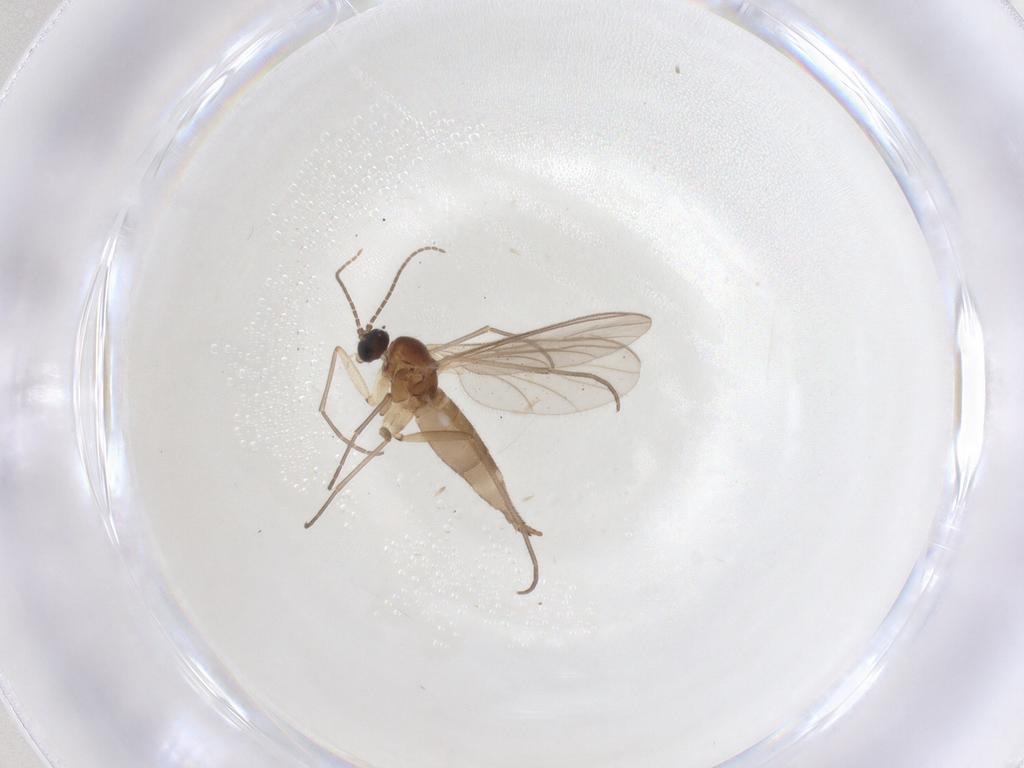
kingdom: Animalia
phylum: Arthropoda
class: Insecta
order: Diptera
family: Sciaridae
